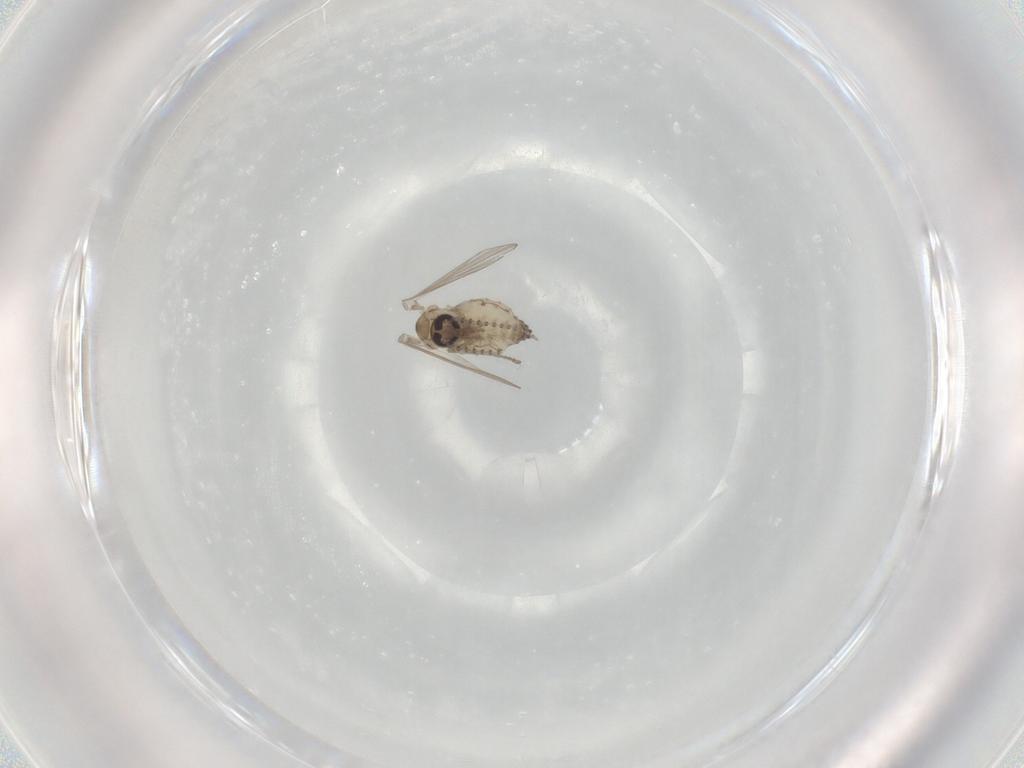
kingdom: Animalia
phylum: Arthropoda
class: Insecta
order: Diptera
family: Psychodidae
